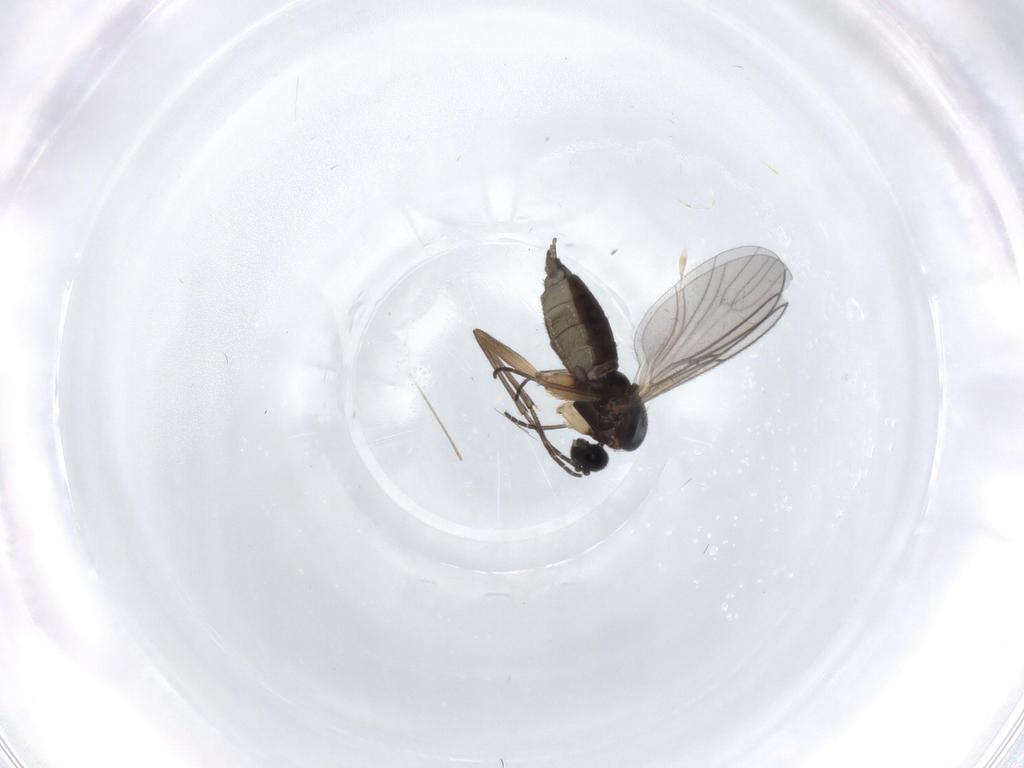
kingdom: Animalia
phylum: Arthropoda
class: Insecta
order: Diptera
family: Sciaridae
